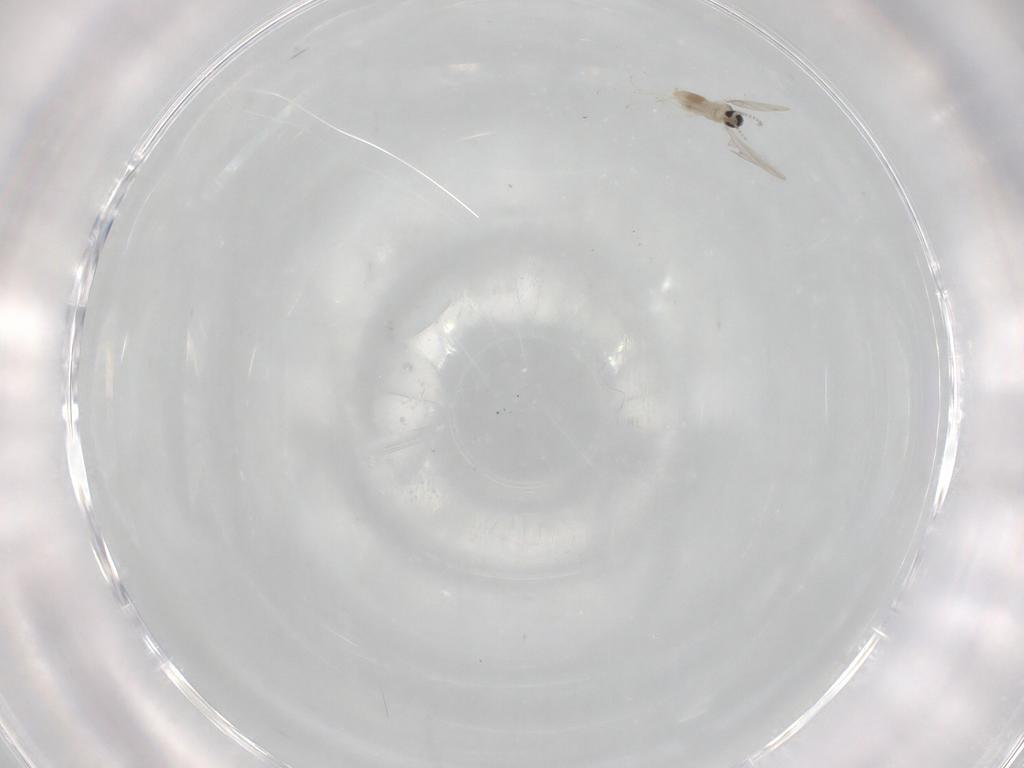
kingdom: Animalia
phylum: Arthropoda
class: Insecta
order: Diptera
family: Cecidomyiidae
